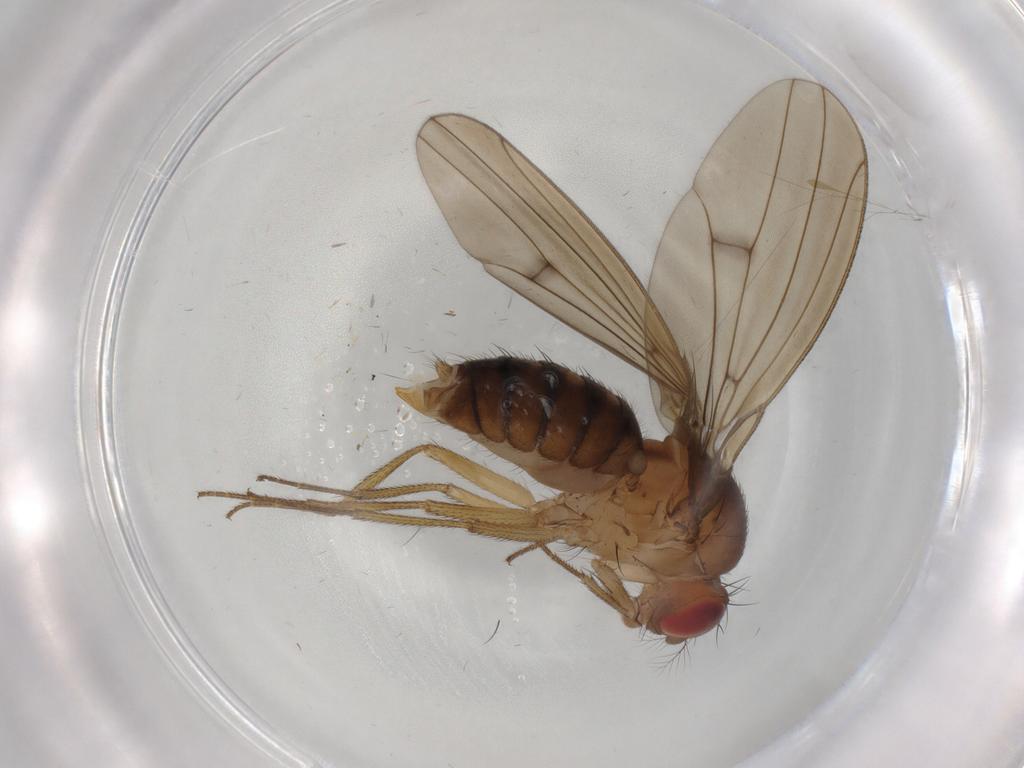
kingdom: Animalia
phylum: Arthropoda
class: Insecta
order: Diptera
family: Drosophilidae
